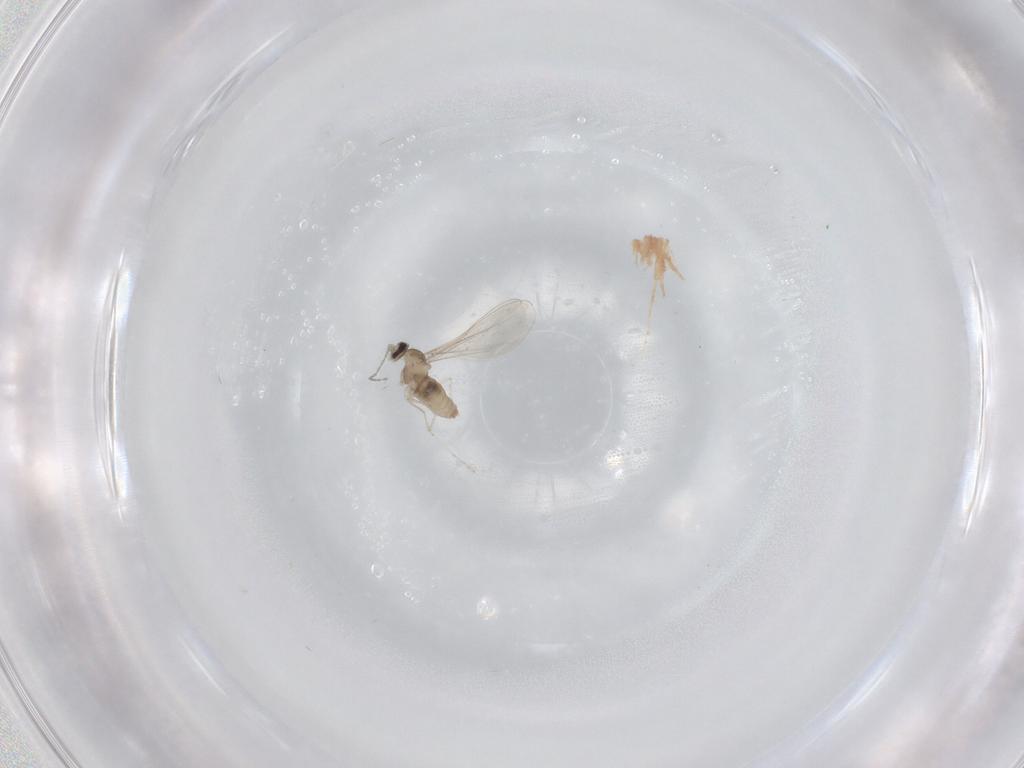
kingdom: Animalia
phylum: Arthropoda
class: Insecta
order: Diptera
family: Cecidomyiidae
